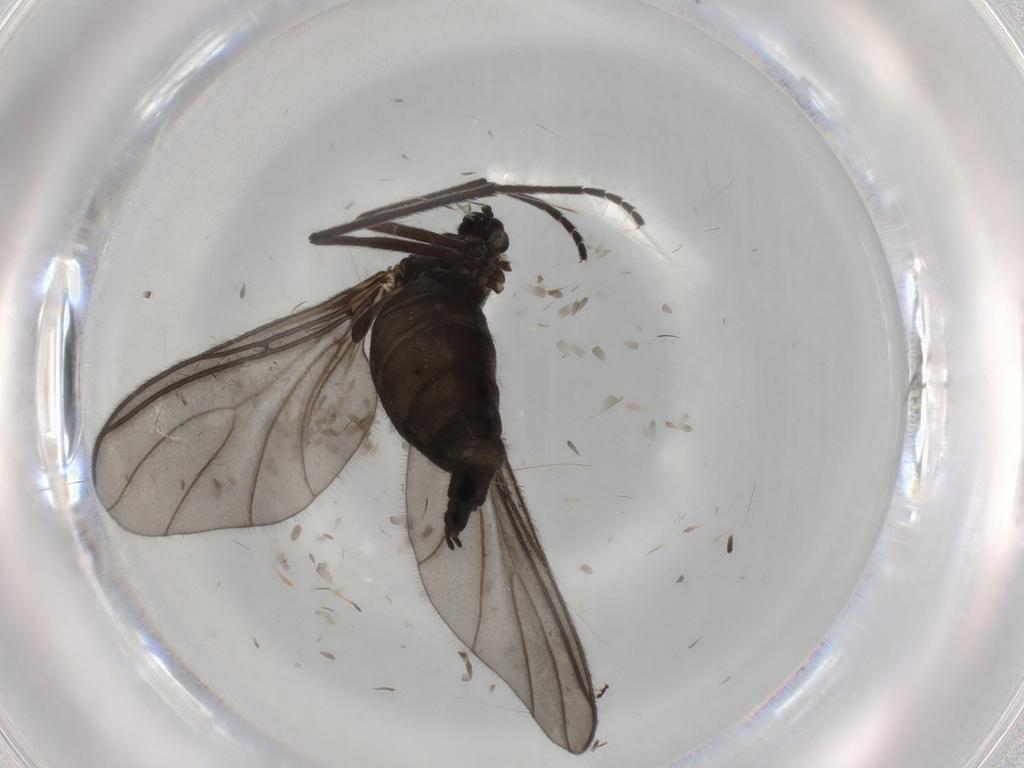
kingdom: Animalia
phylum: Arthropoda
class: Insecta
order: Diptera
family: Sciaridae
